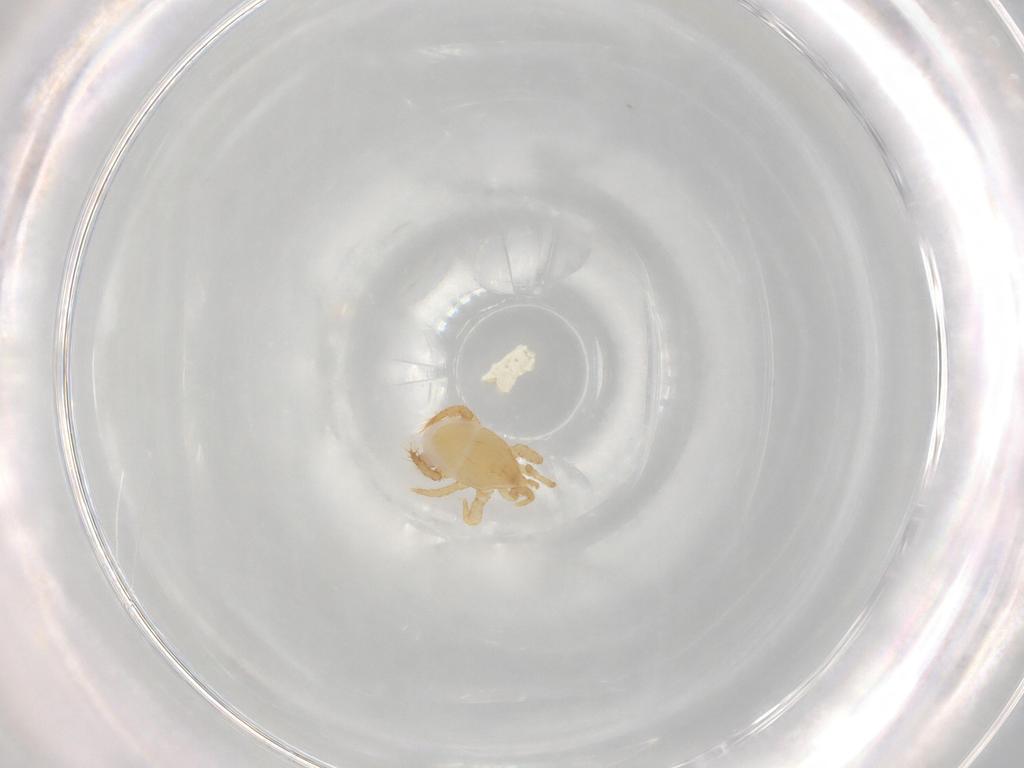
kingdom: Animalia
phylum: Arthropoda
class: Arachnida
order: Mesostigmata
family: Parasitidae
